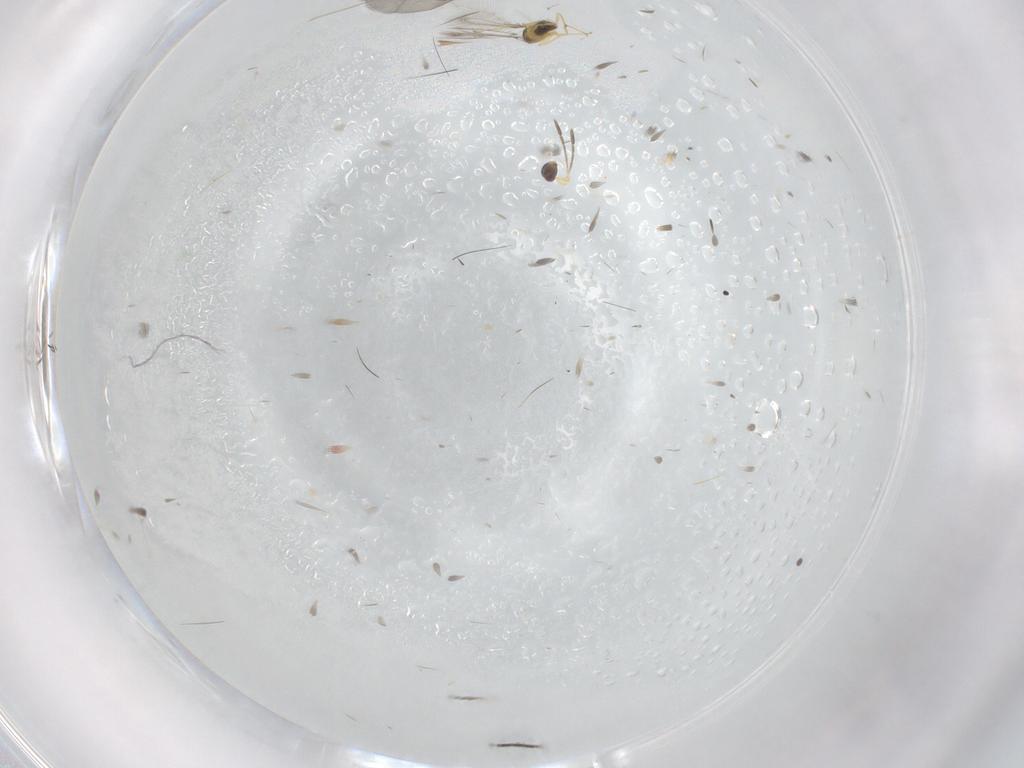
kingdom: Animalia
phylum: Arthropoda
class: Insecta
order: Hymenoptera
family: Mymaridae
